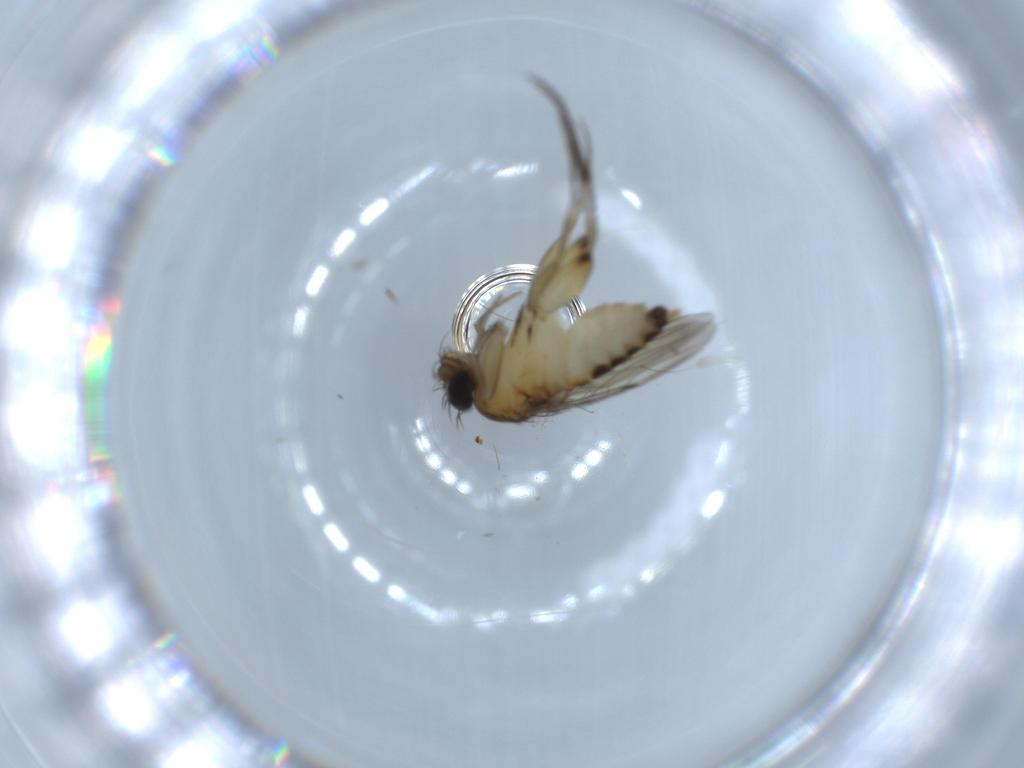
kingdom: Animalia
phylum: Arthropoda
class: Insecta
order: Diptera
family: Phoridae
